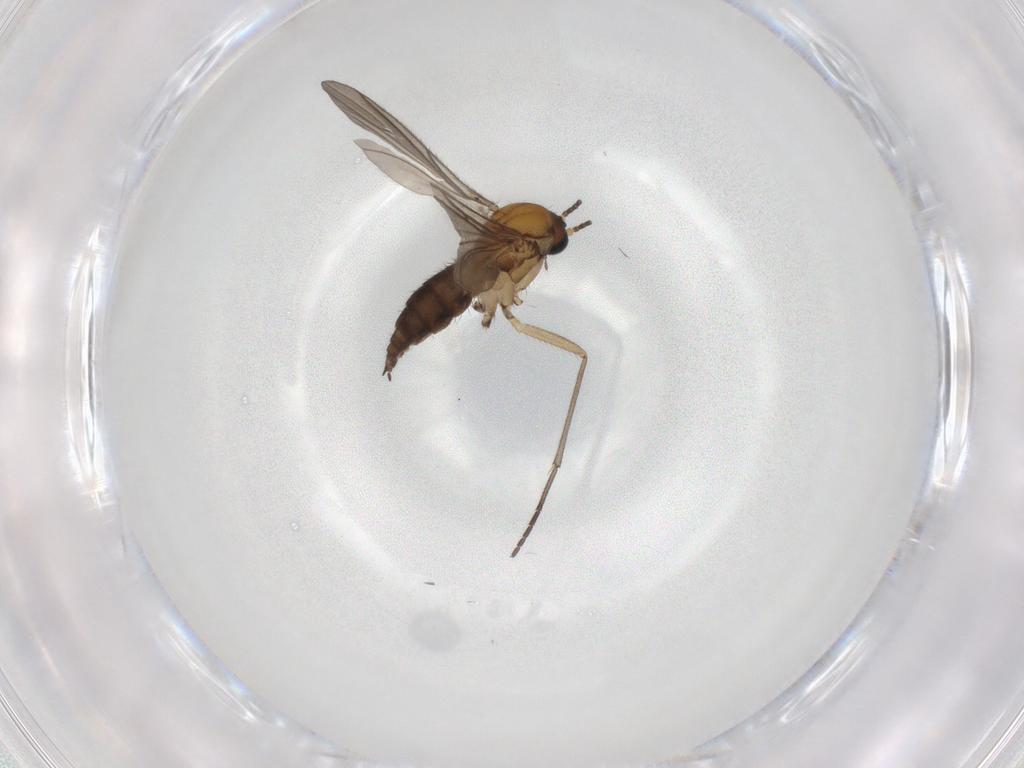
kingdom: Animalia
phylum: Arthropoda
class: Insecta
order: Diptera
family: Sciaridae
